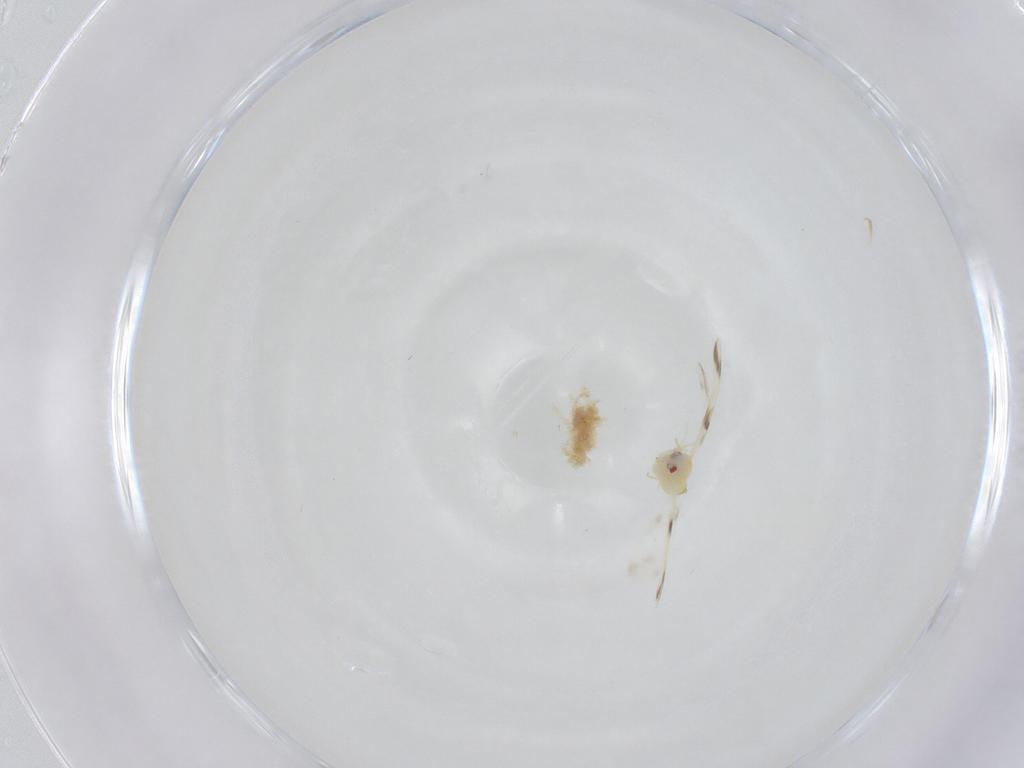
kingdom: Animalia
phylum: Arthropoda
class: Insecta
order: Hemiptera
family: Aleyrodidae
